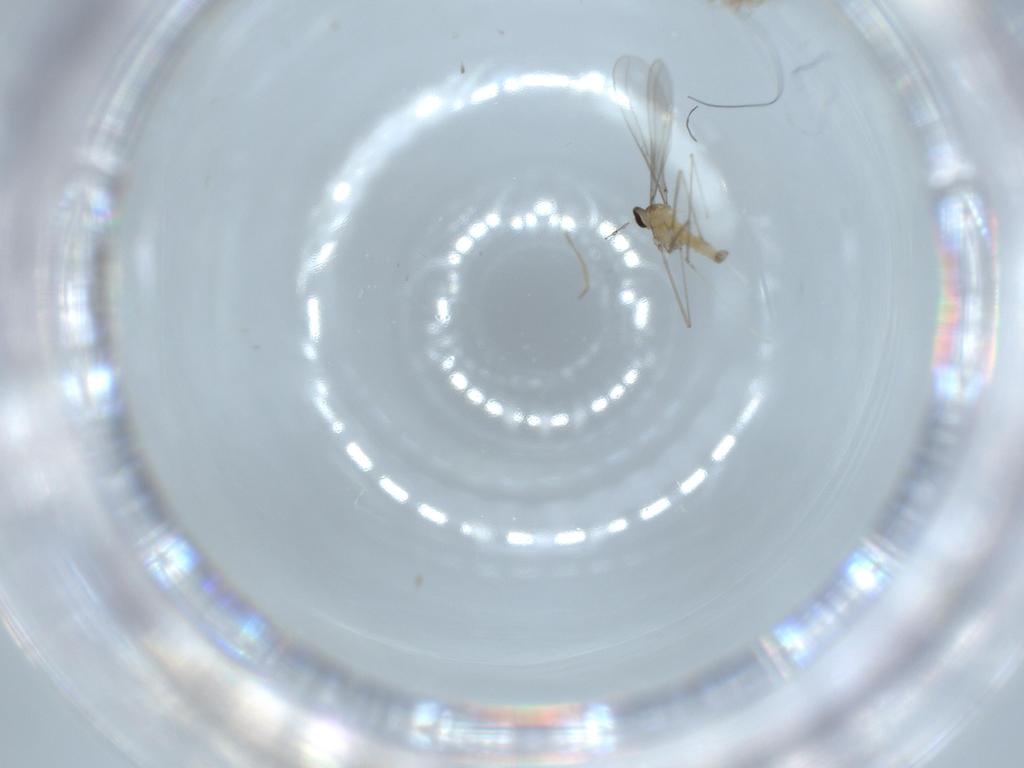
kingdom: Animalia
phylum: Arthropoda
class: Insecta
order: Diptera
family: Cecidomyiidae
